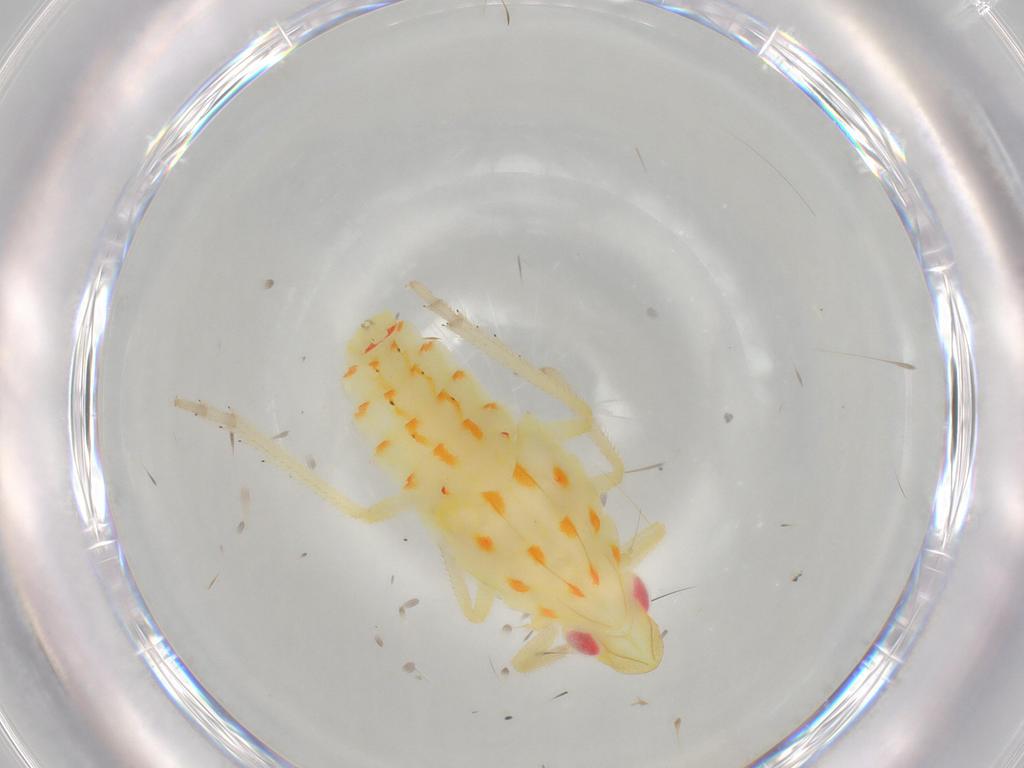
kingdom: Animalia
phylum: Arthropoda
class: Insecta
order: Hemiptera
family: Tropiduchidae
